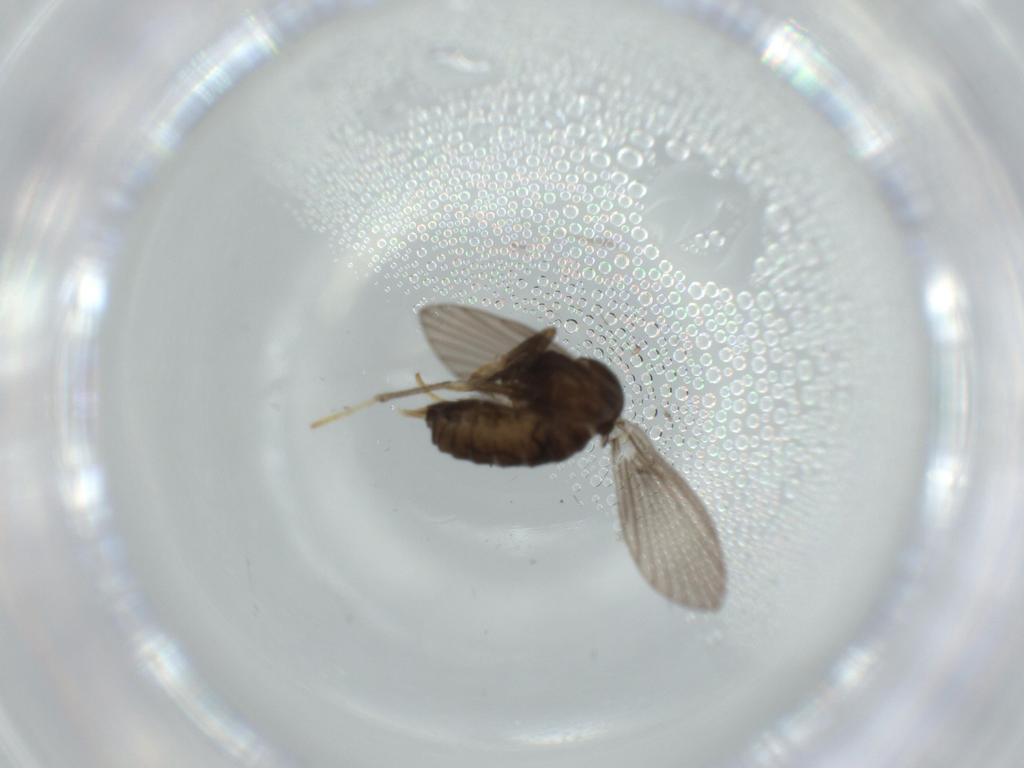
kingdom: Animalia
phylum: Arthropoda
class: Insecta
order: Diptera
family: Psychodidae
